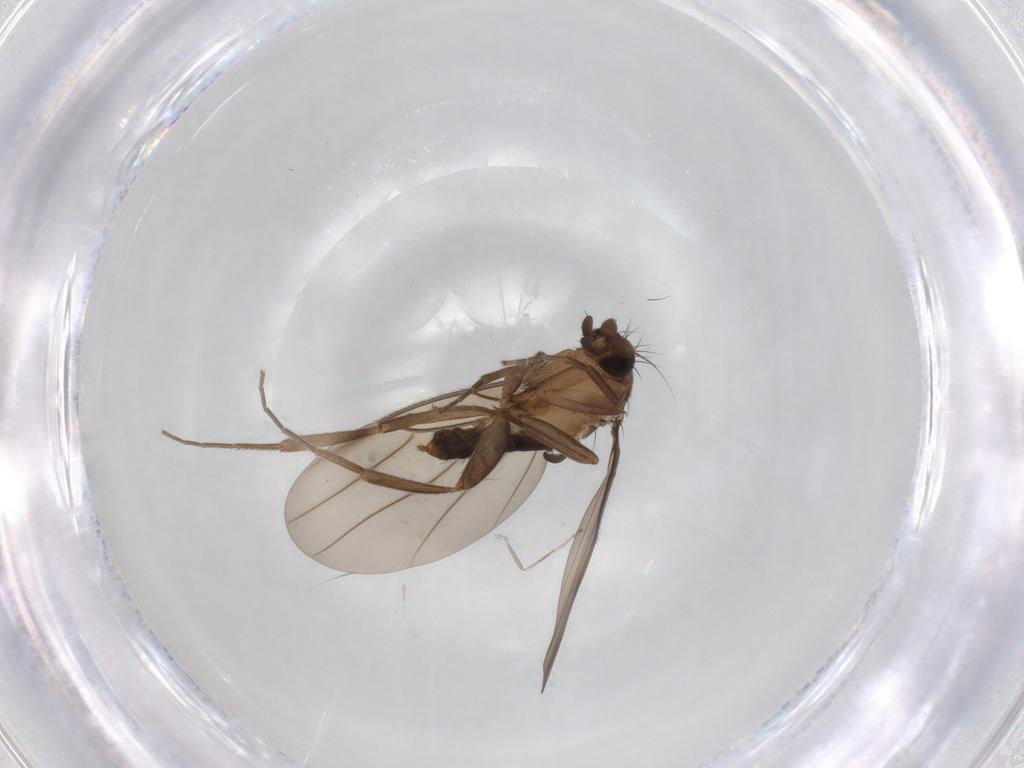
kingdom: Animalia
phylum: Arthropoda
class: Insecta
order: Diptera
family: Phoridae
